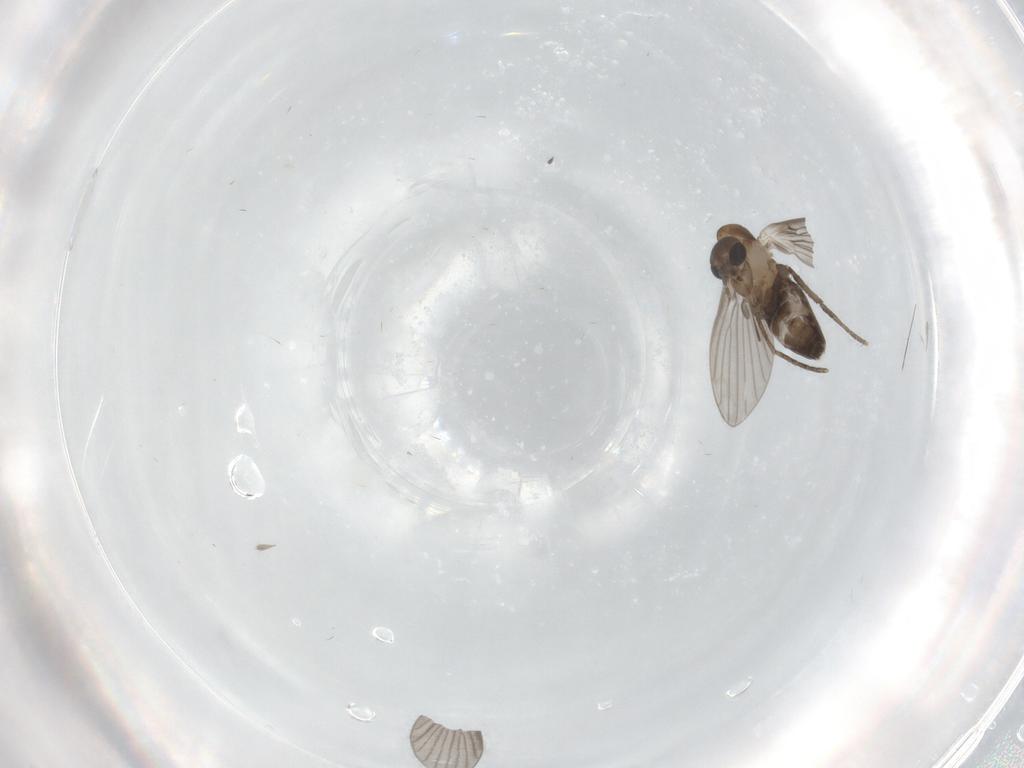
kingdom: Animalia
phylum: Arthropoda
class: Insecta
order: Diptera
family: Psychodidae
